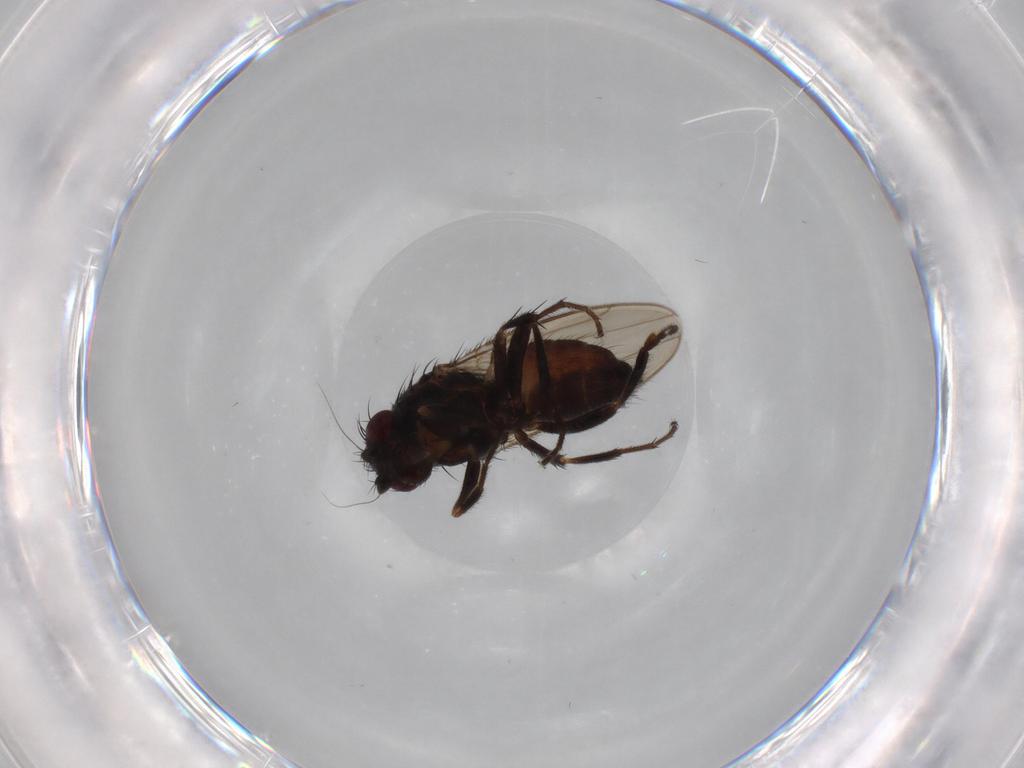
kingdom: Animalia
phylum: Arthropoda
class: Insecta
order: Diptera
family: Sphaeroceridae
